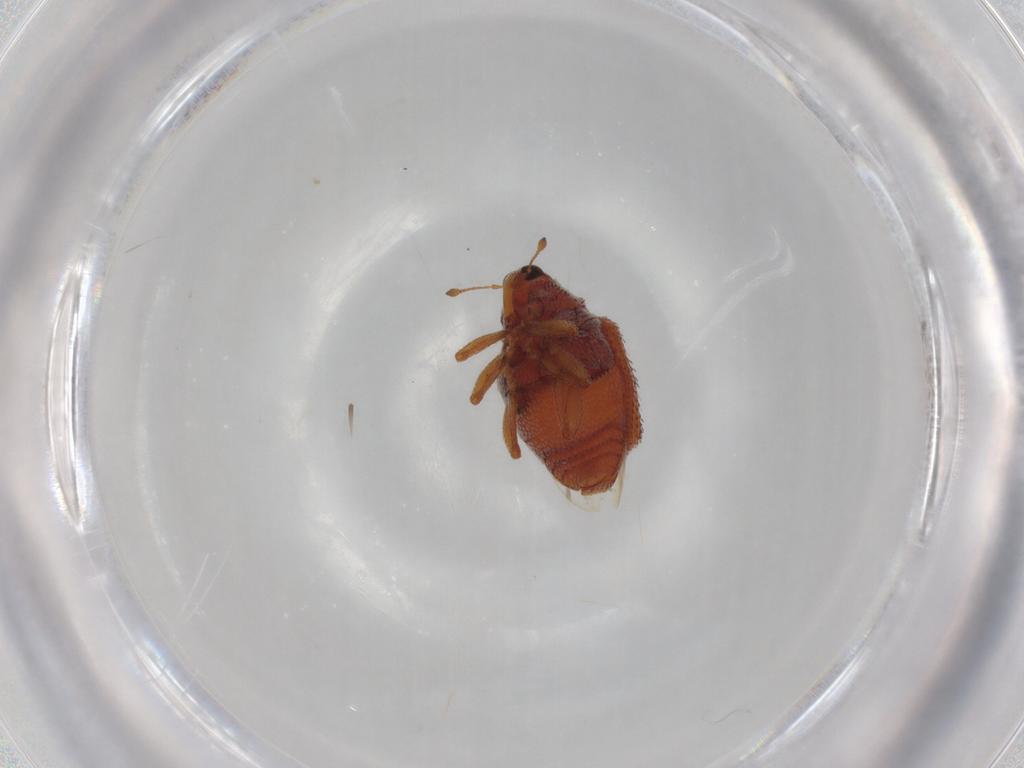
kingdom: Animalia
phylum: Arthropoda
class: Insecta
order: Coleoptera
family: Curculionidae
